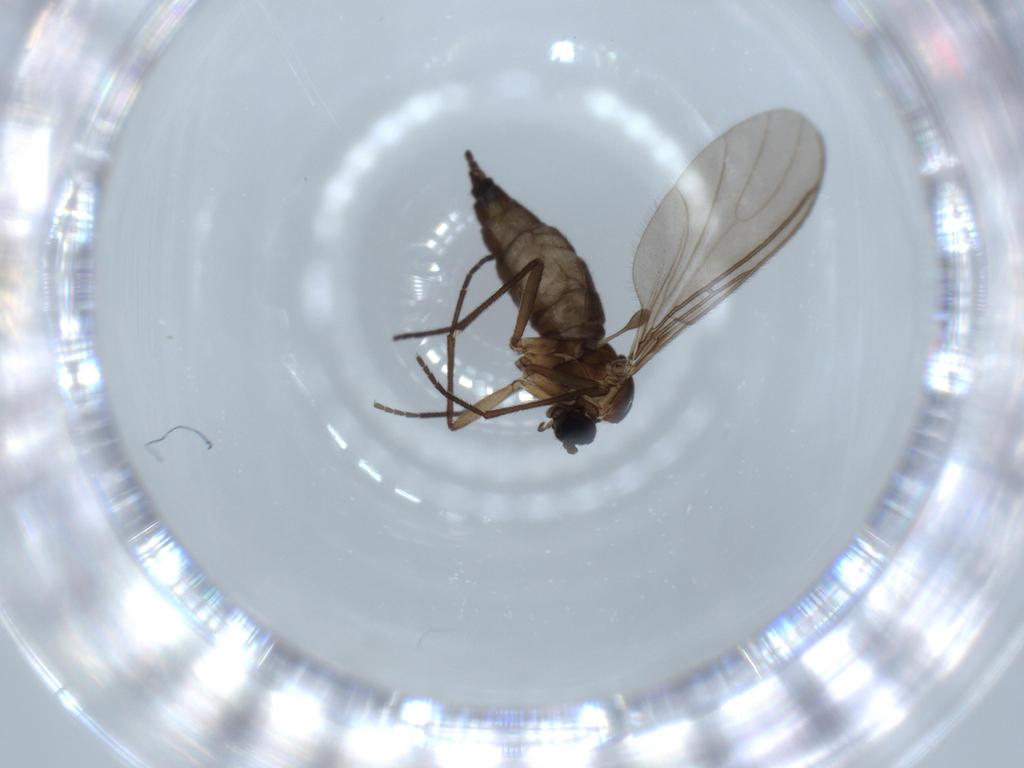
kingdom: Animalia
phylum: Arthropoda
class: Insecta
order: Diptera
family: Sciaridae
